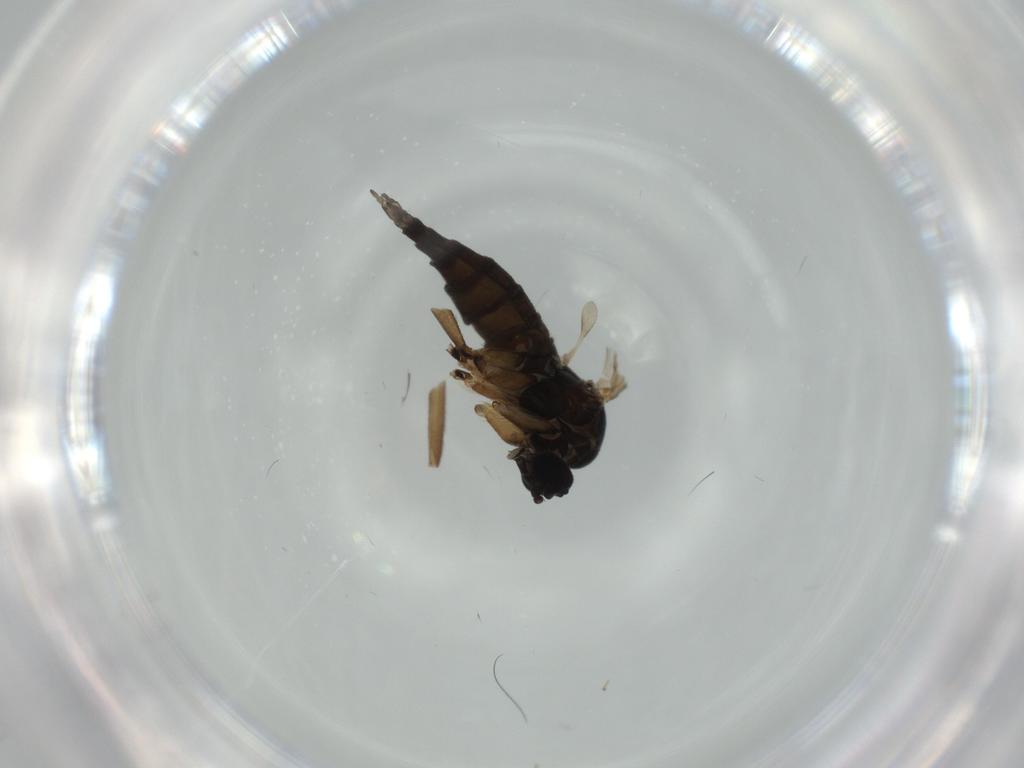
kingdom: Animalia
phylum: Arthropoda
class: Insecta
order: Diptera
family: Sciaridae
